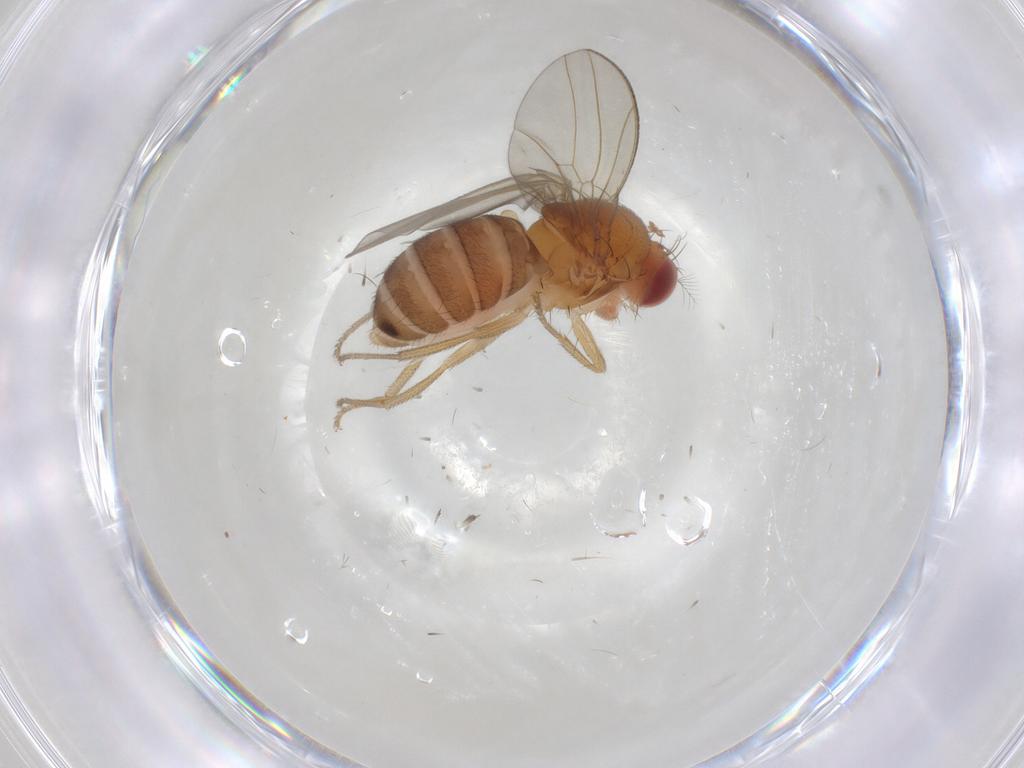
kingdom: Animalia
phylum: Arthropoda
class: Insecta
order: Diptera
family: Drosophilidae
